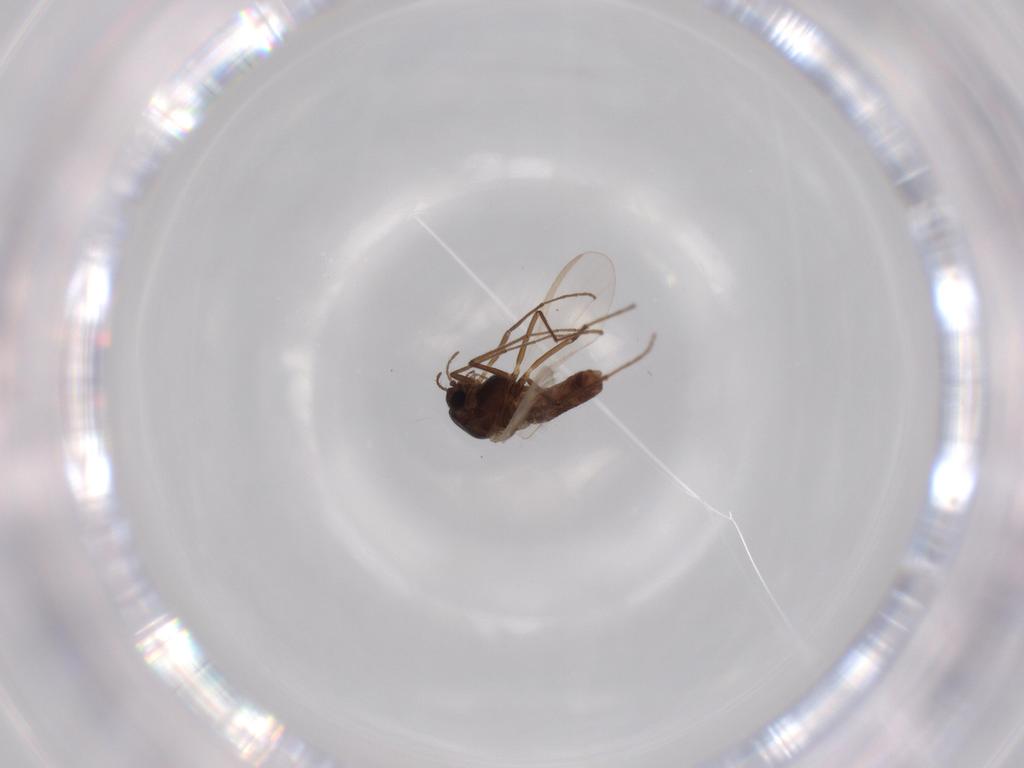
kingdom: Animalia
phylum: Arthropoda
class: Insecta
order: Diptera
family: Chironomidae
